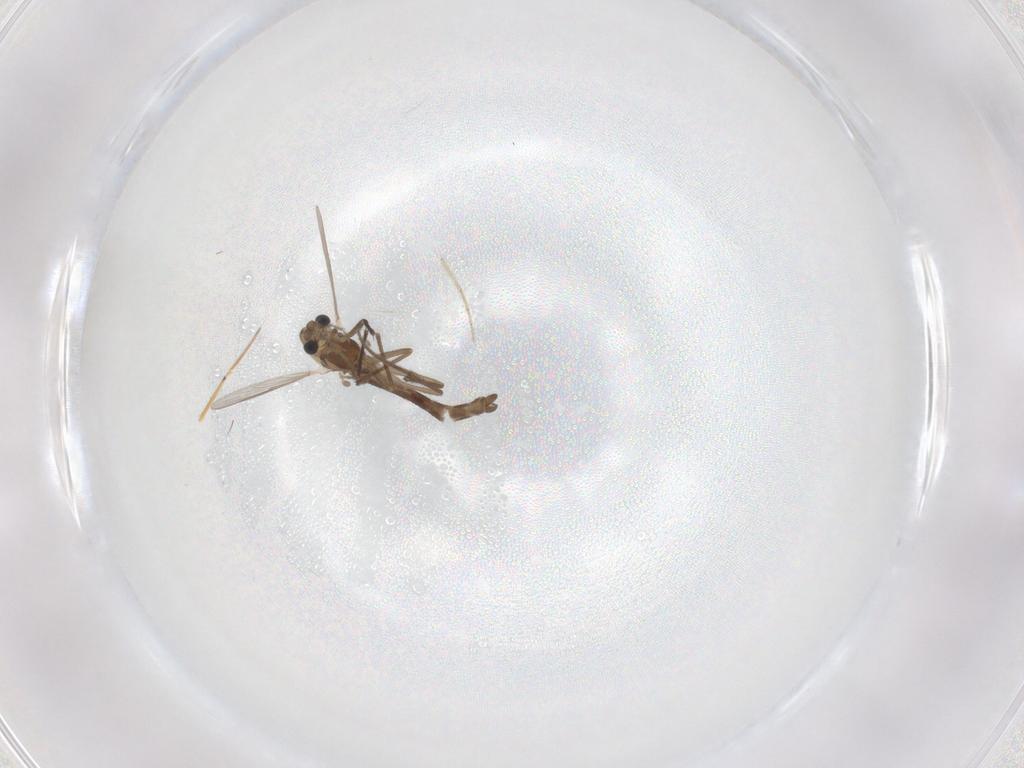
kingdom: Animalia
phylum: Arthropoda
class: Insecta
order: Diptera
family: Chironomidae
